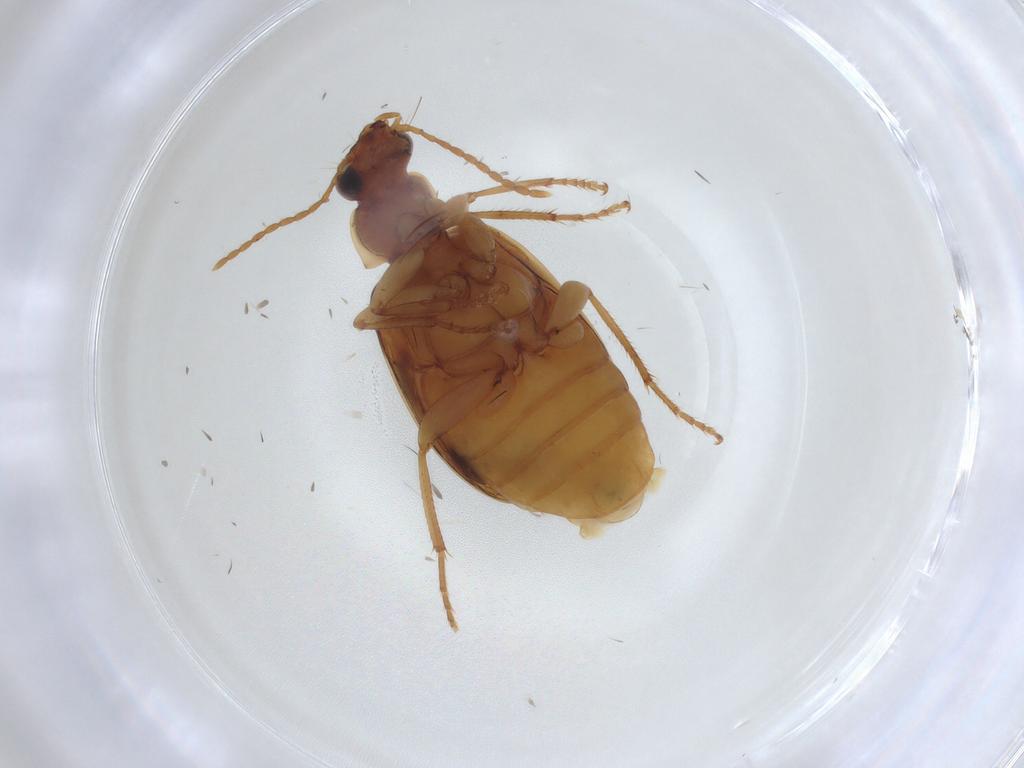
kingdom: Animalia
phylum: Arthropoda
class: Insecta
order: Coleoptera
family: Carabidae
